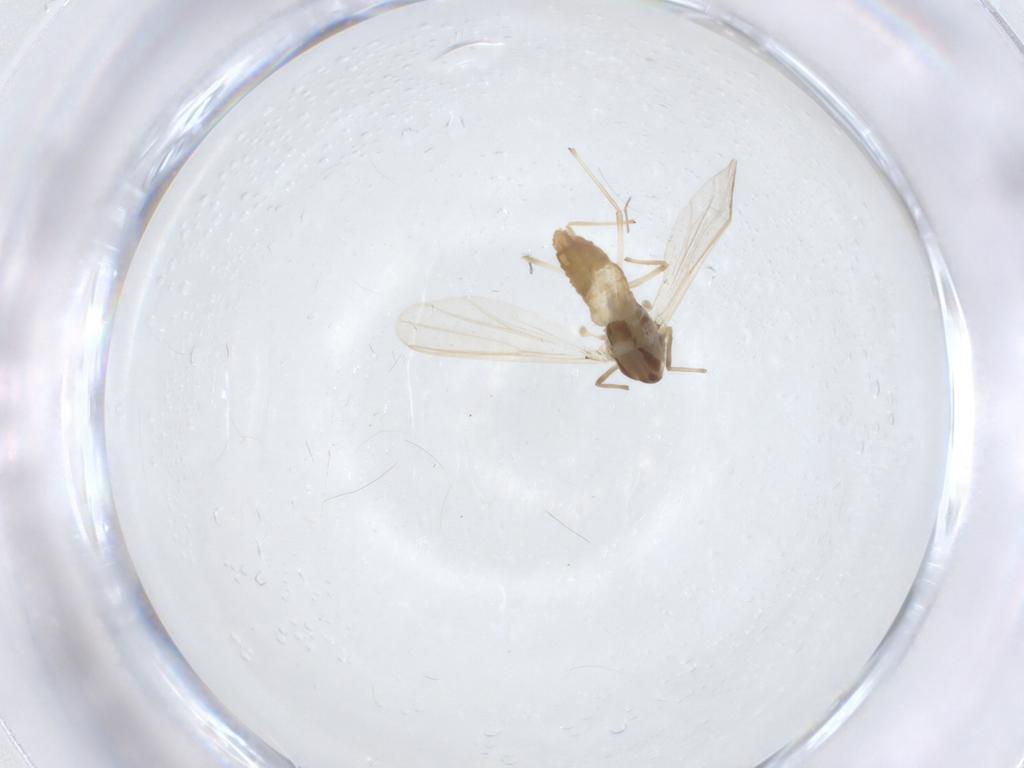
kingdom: Animalia
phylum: Arthropoda
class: Insecta
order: Diptera
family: Chironomidae
